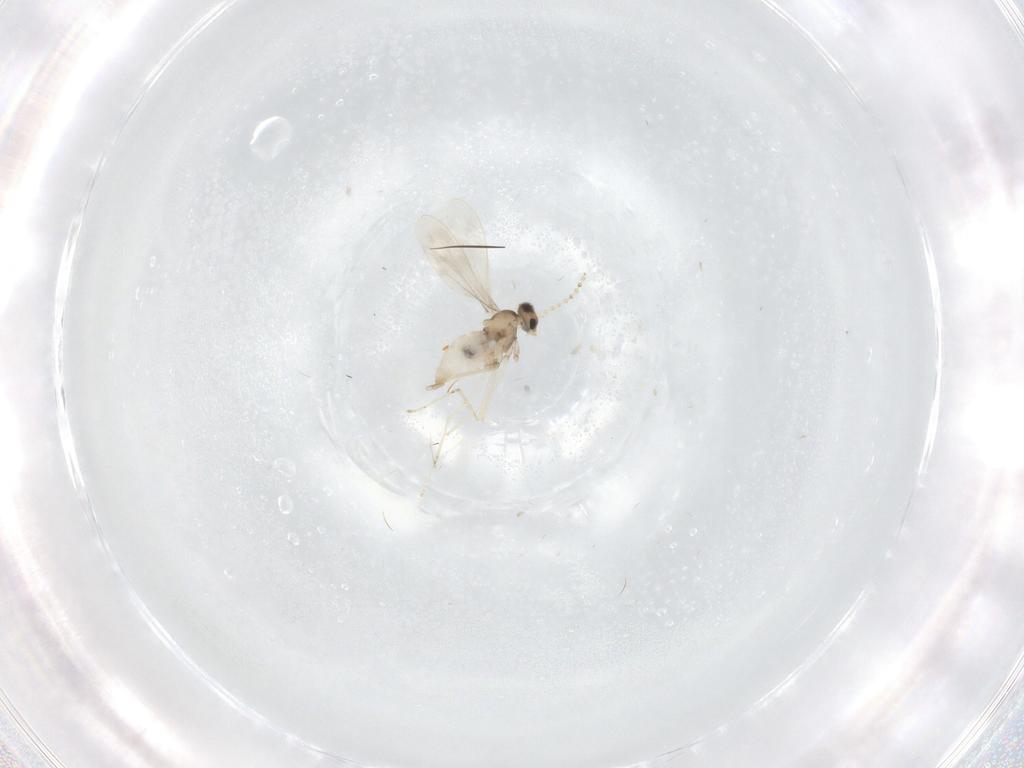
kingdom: Animalia
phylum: Arthropoda
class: Insecta
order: Diptera
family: Cecidomyiidae
